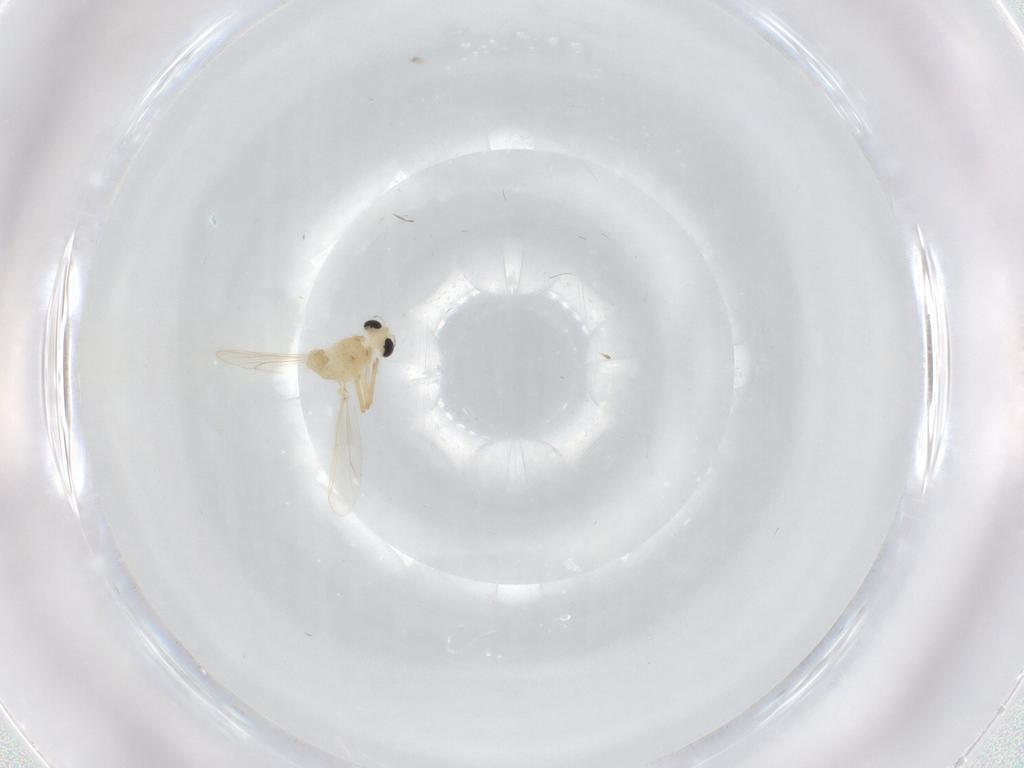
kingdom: Animalia
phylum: Arthropoda
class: Insecta
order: Diptera
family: Chironomidae
